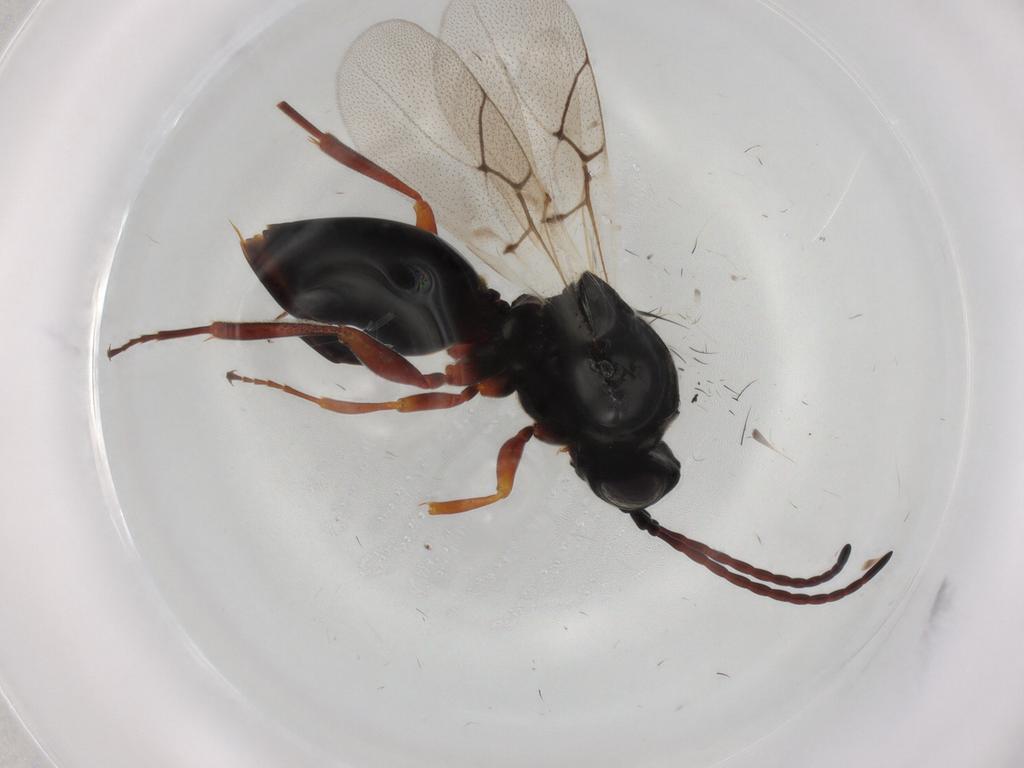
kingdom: Animalia
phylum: Arthropoda
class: Insecta
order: Hymenoptera
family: Figitidae
